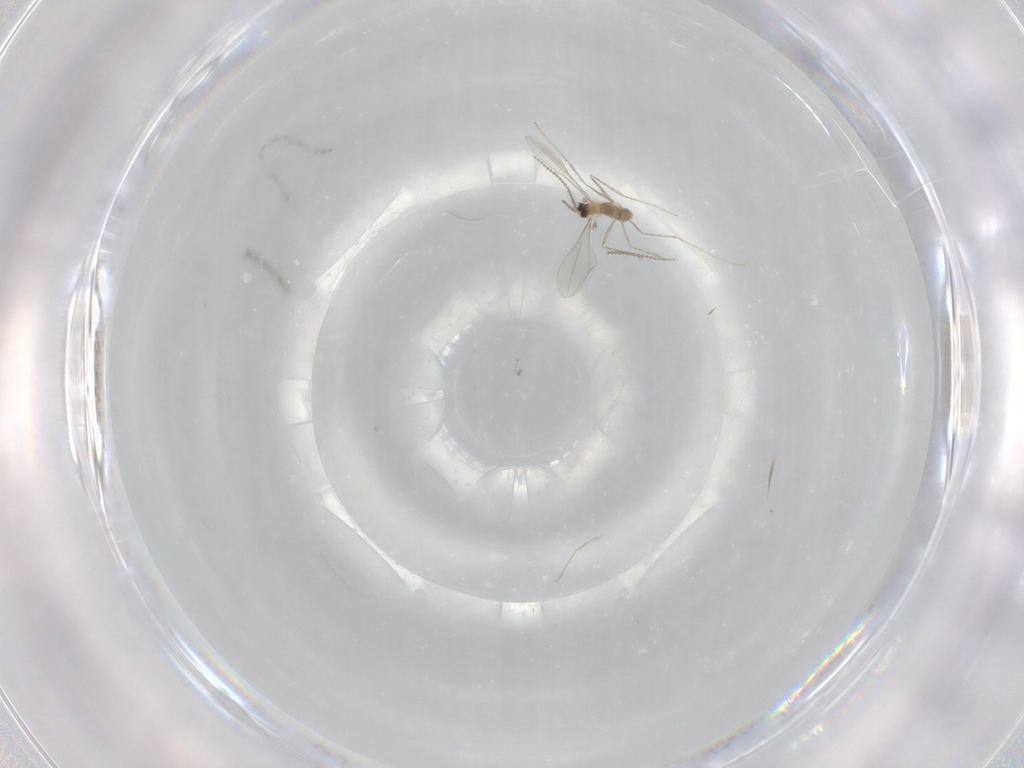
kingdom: Animalia
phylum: Arthropoda
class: Insecta
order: Diptera
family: Cecidomyiidae
